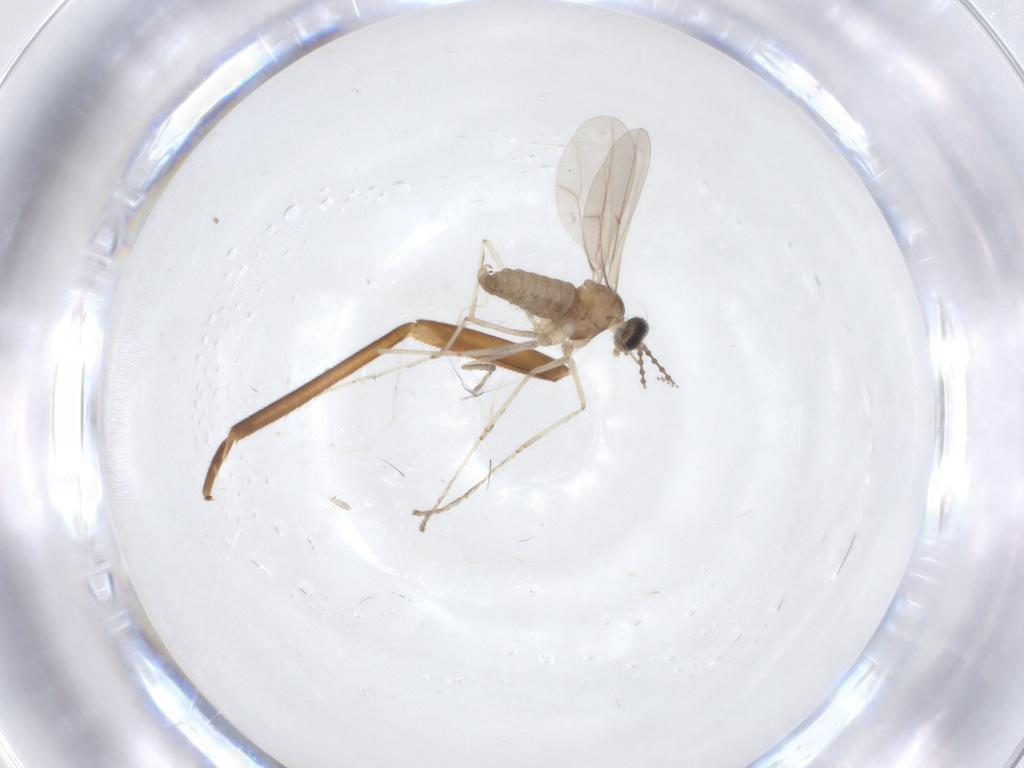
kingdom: Animalia
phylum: Arthropoda
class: Insecta
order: Diptera
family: Cecidomyiidae
